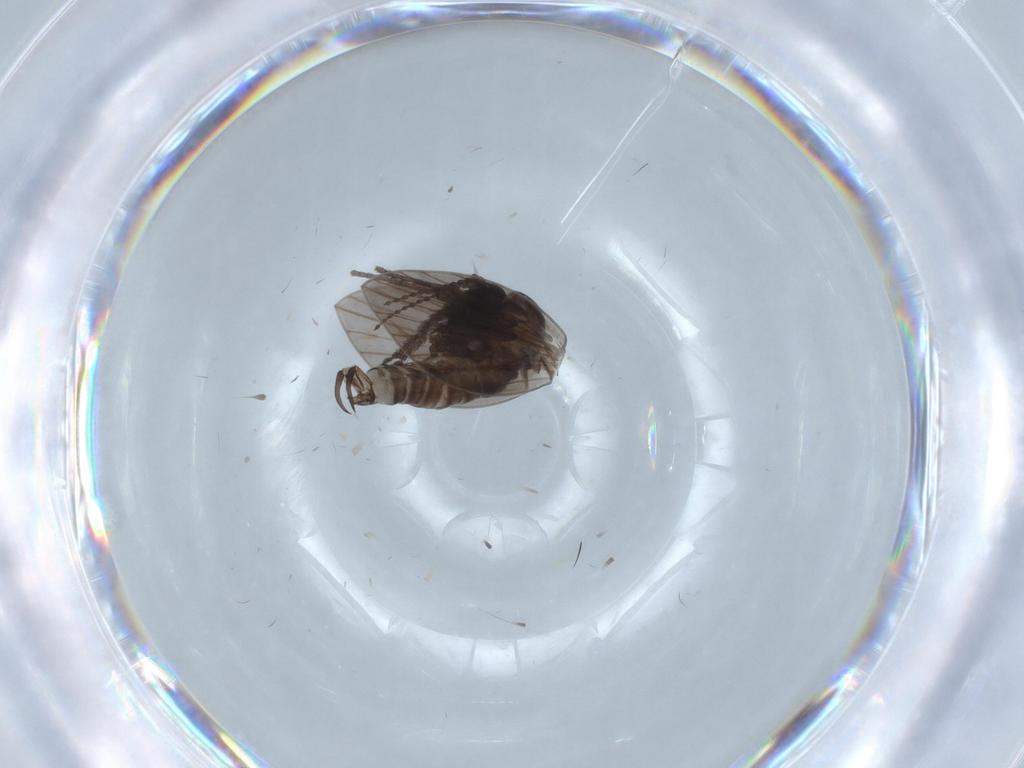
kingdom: Animalia
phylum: Arthropoda
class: Insecta
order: Diptera
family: Psychodidae
